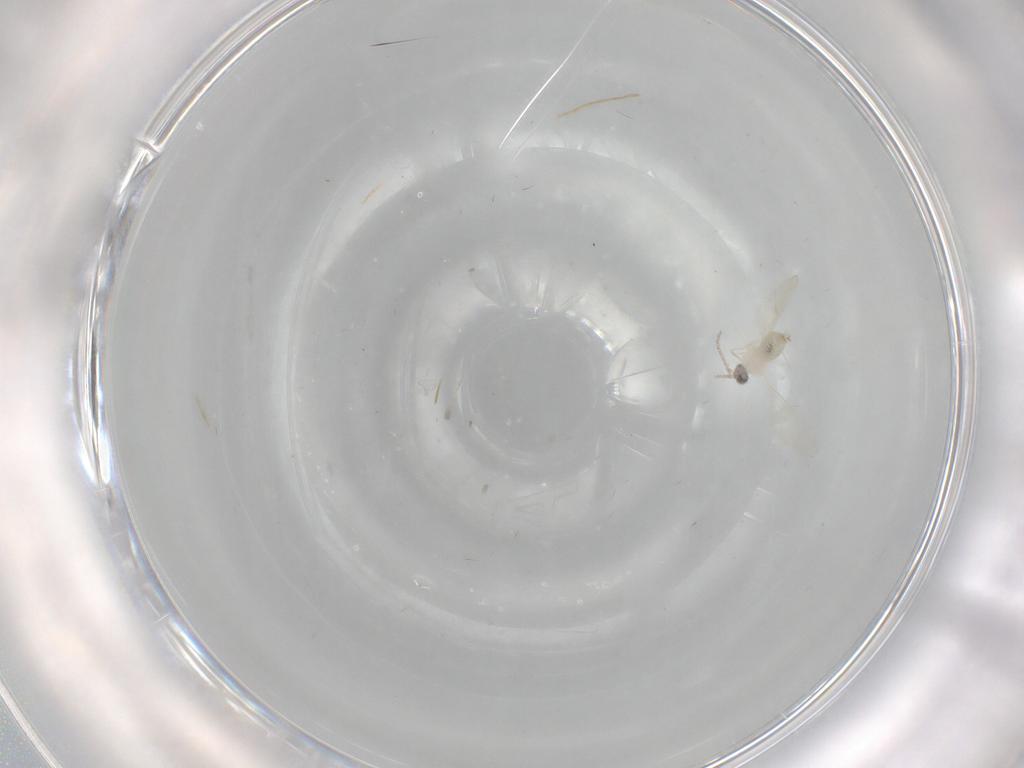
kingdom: Animalia
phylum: Arthropoda
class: Insecta
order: Diptera
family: Cecidomyiidae
